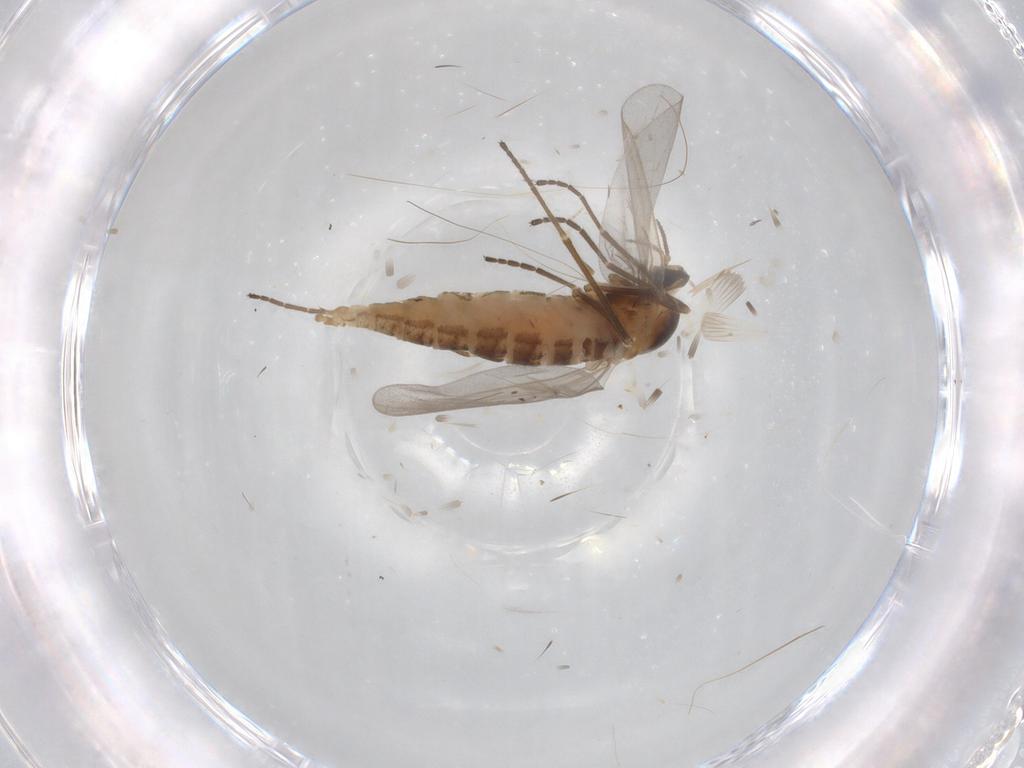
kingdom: Animalia
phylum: Arthropoda
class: Insecta
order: Diptera
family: Cecidomyiidae
